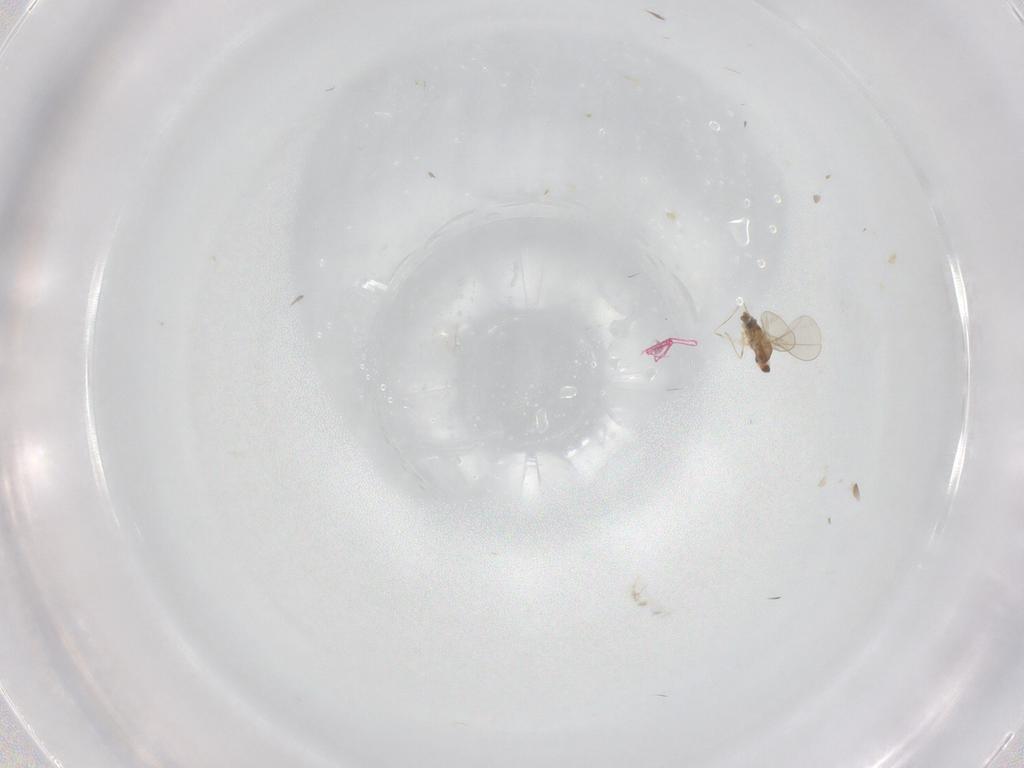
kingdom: Animalia
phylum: Arthropoda
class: Insecta
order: Diptera
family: Cecidomyiidae
